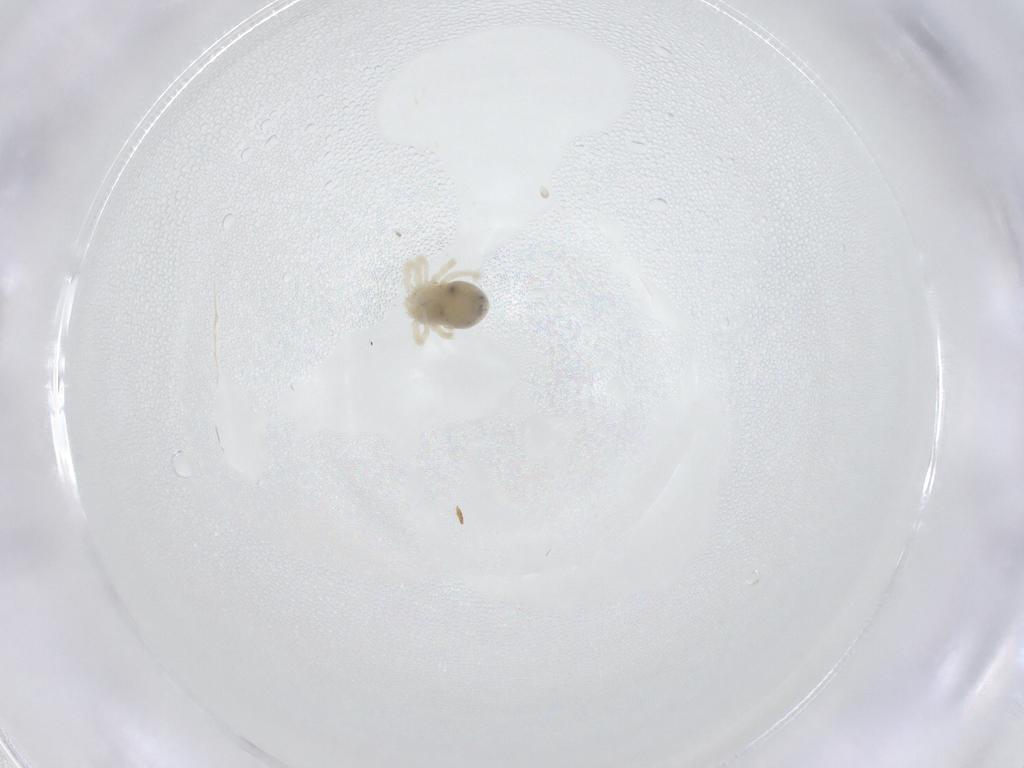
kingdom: Animalia
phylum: Arthropoda
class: Arachnida
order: Trombidiformes
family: Anystidae
